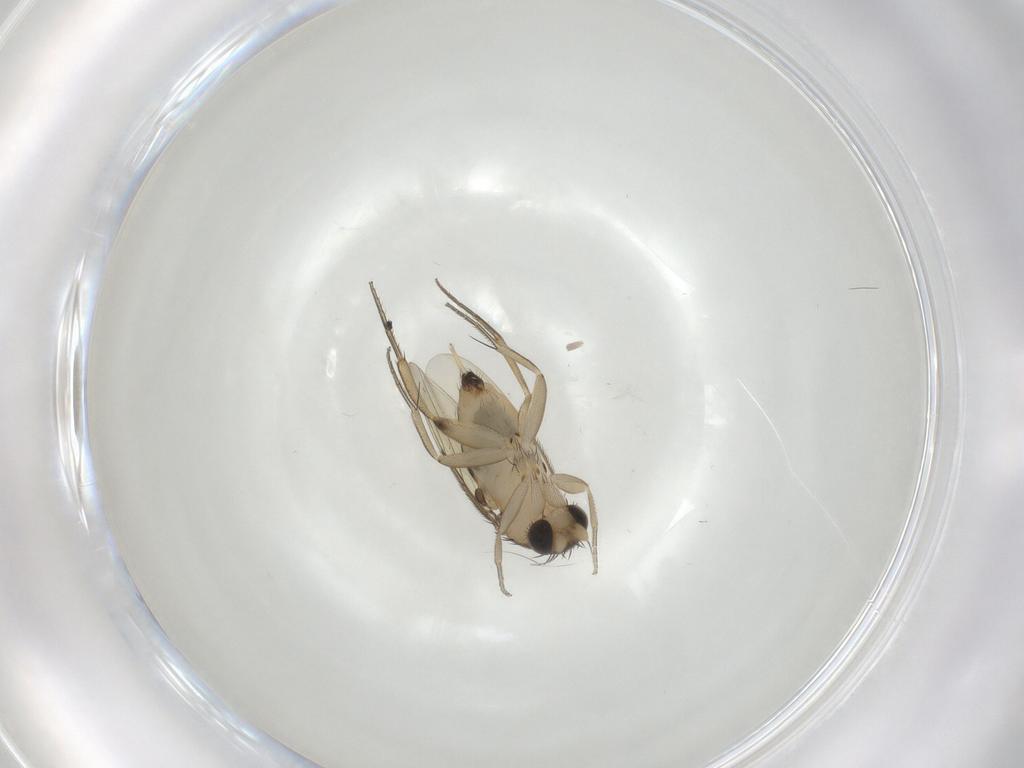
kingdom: Animalia
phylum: Arthropoda
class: Insecta
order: Diptera
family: Phoridae
